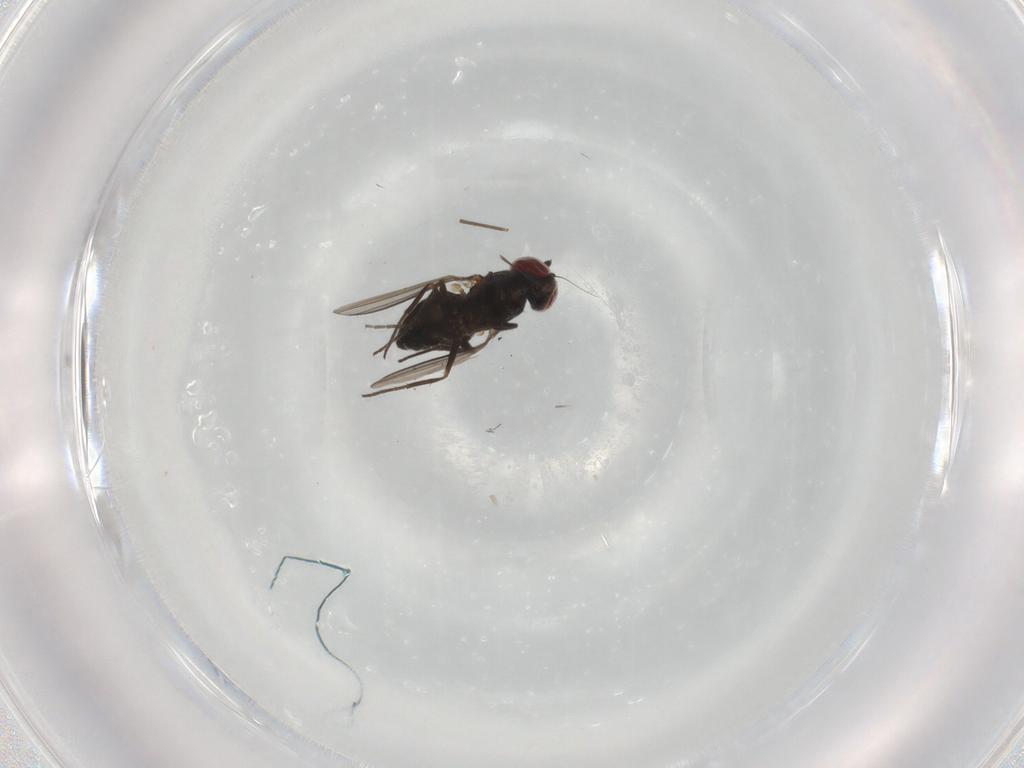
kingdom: Animalia
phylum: Arthropoda
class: Insecta
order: Diptera
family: Dolichopodidae
